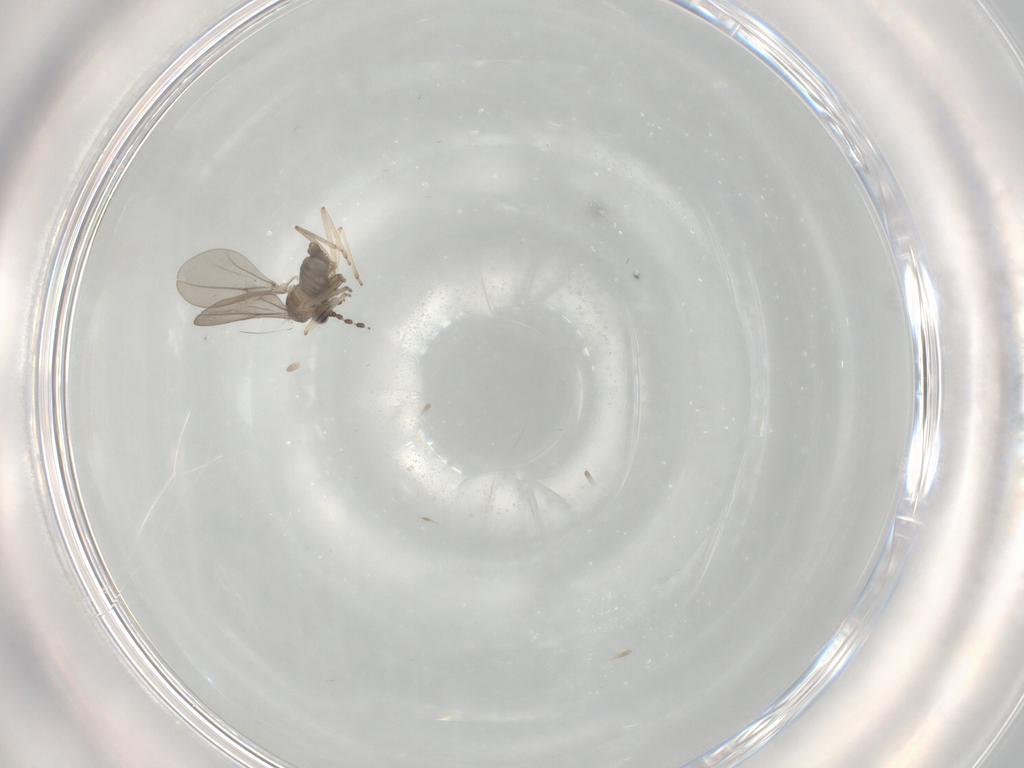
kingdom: Animalia
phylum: Arthropoda
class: Insecta
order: Diptera
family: Cecidomyiidae
